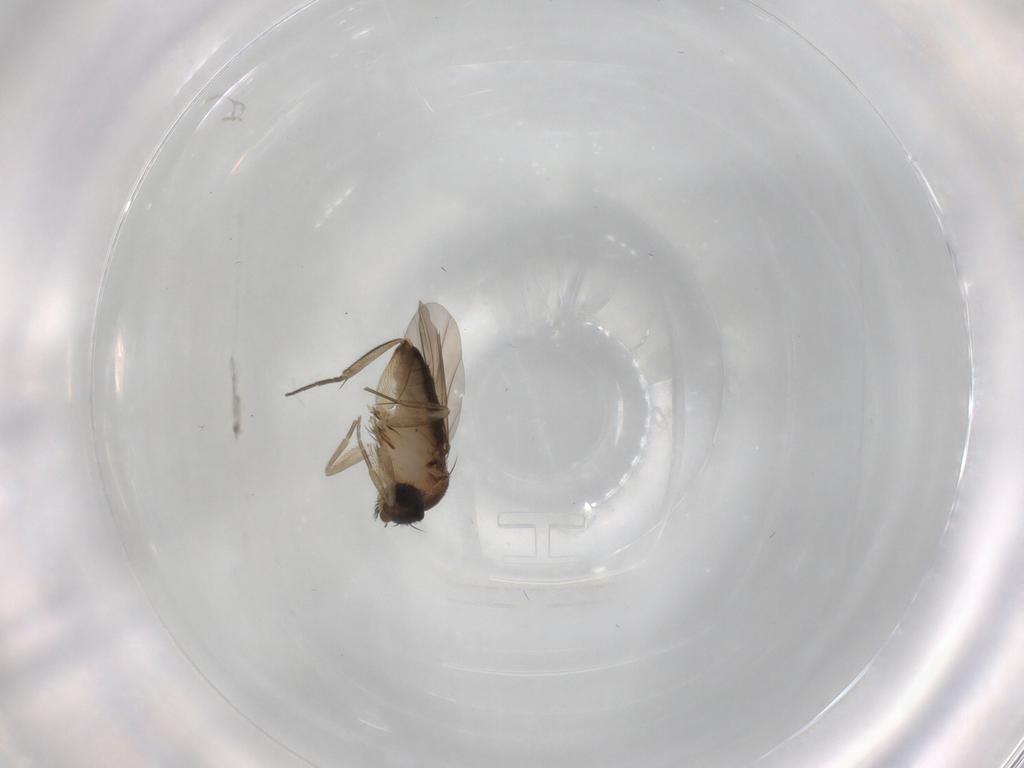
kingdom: Animalia
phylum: Arthropoda
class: Insecta
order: Diptera
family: Phoridae
